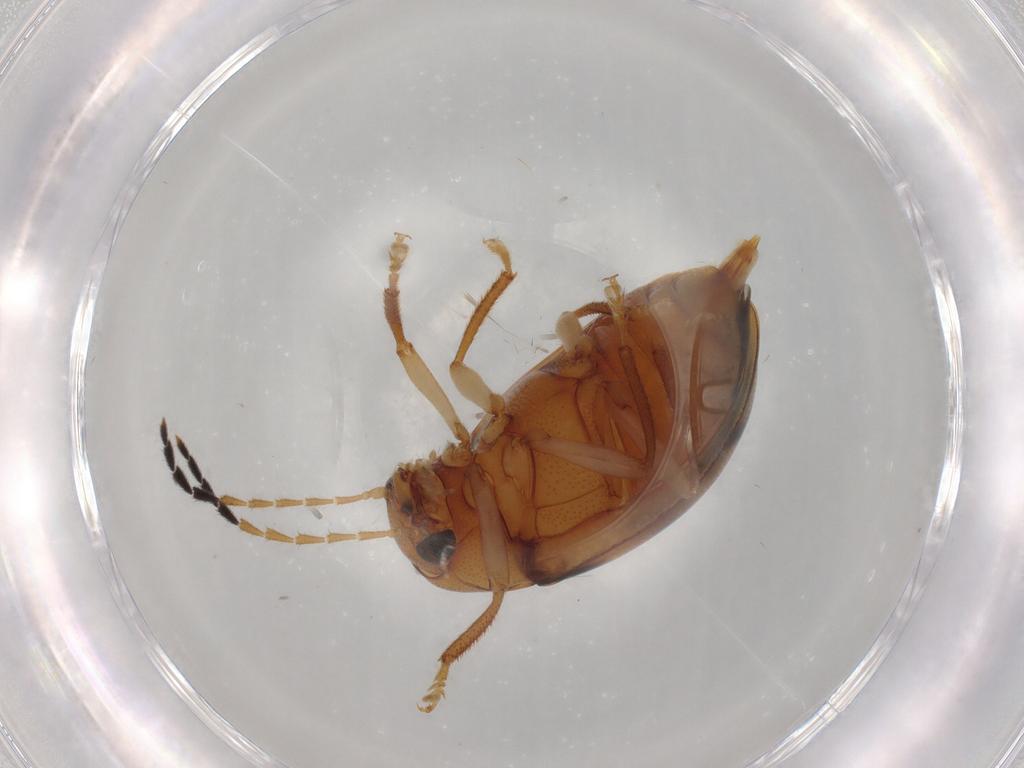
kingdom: Animalia
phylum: Arthropoda
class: Insecta
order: Coleoptera
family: Ptilodactylidae
